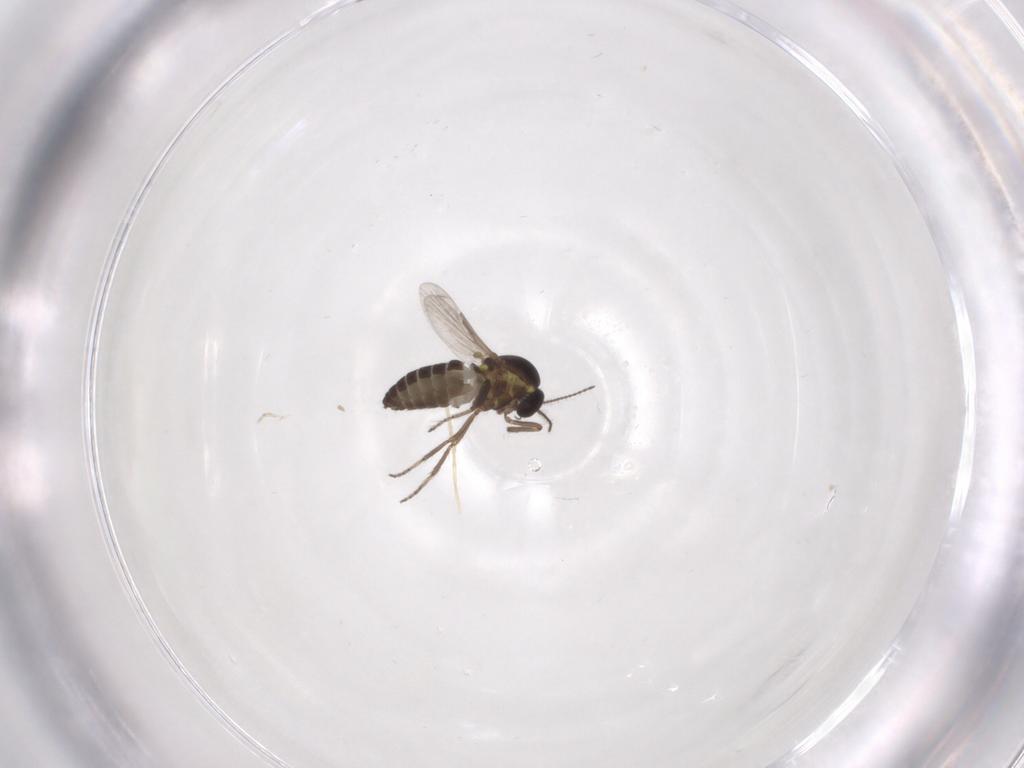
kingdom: Animalia
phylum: Arthropoda
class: Insecta
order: Diptera
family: Ceratopogonidae
